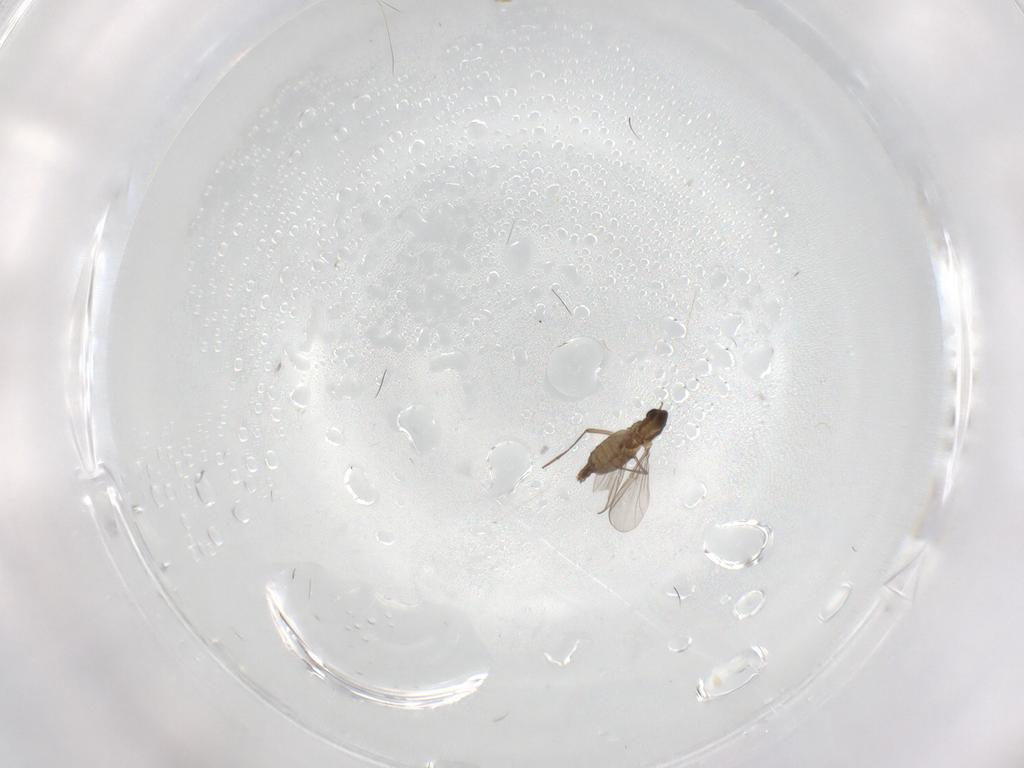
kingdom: Animalia
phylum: Arthropoda
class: Insecta
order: Diptera
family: Chironomidae
